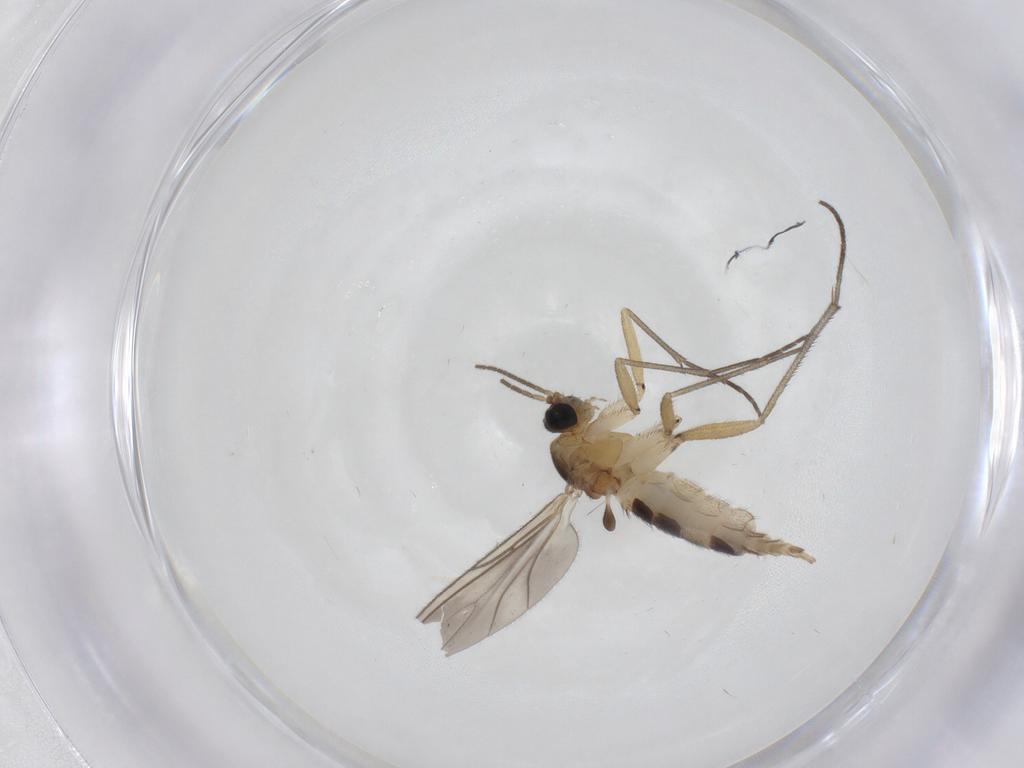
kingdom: Animalia
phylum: Arthropoda
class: Insecta
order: Diptera
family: Sciaridae
